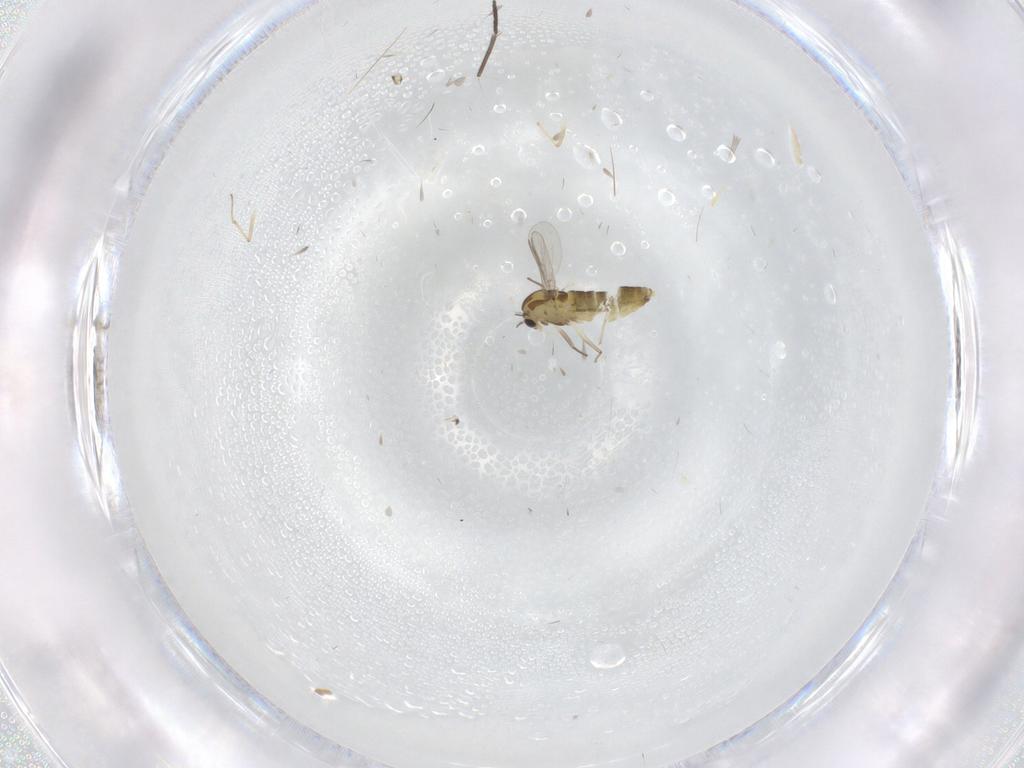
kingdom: Animalia
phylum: Arthropoda
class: Insecta
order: Diptera
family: Chironomidae
